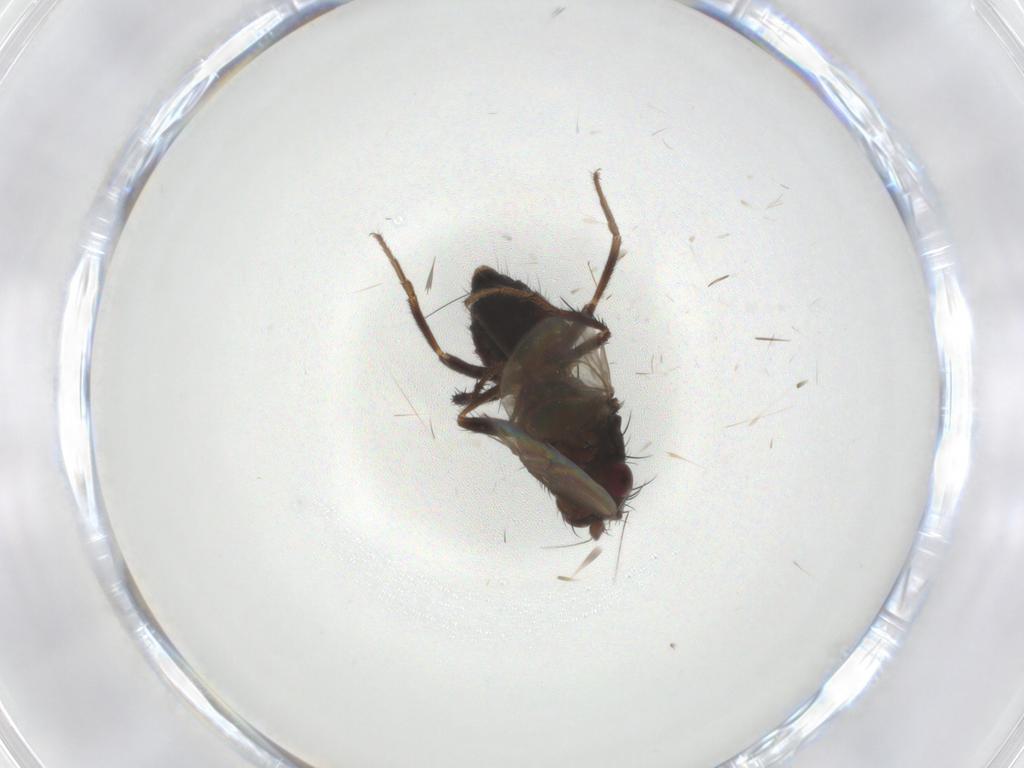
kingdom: Animalia
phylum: Arthropoda
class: Insecta
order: Diptera
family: Sphaeroceridae
